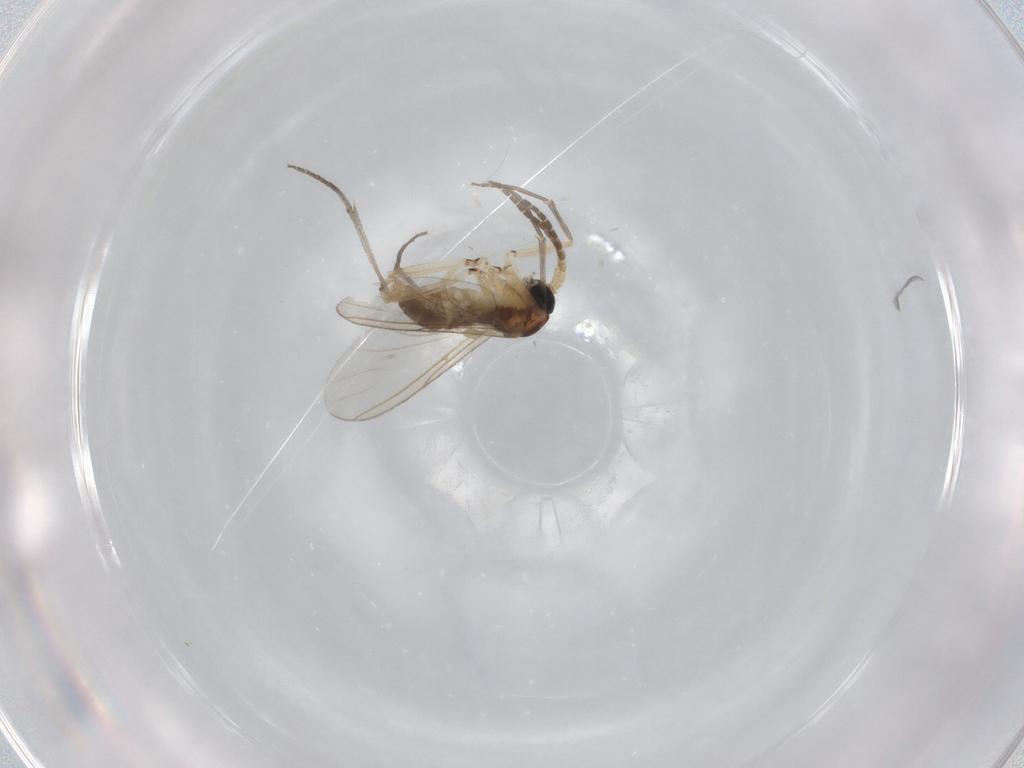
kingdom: Animalia
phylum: Arthropoda
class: Insecta
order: Diptera
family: Sciaridae
